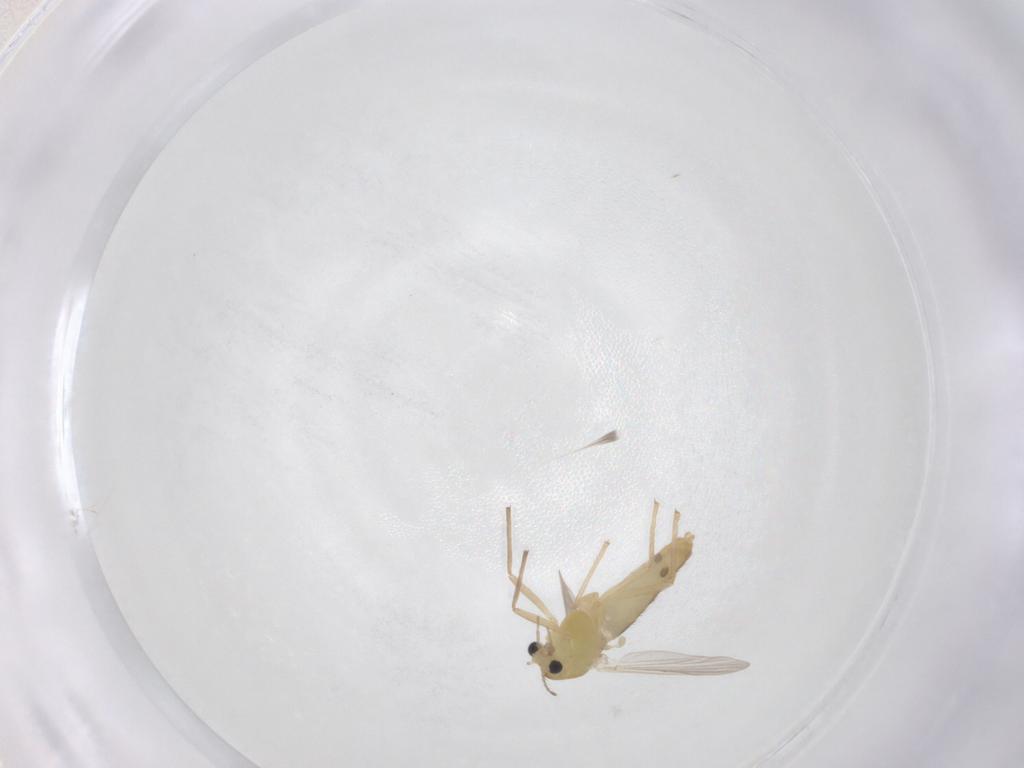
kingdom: Animalia
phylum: Arthropoda
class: Insecta
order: Diptera
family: Chironomidae
